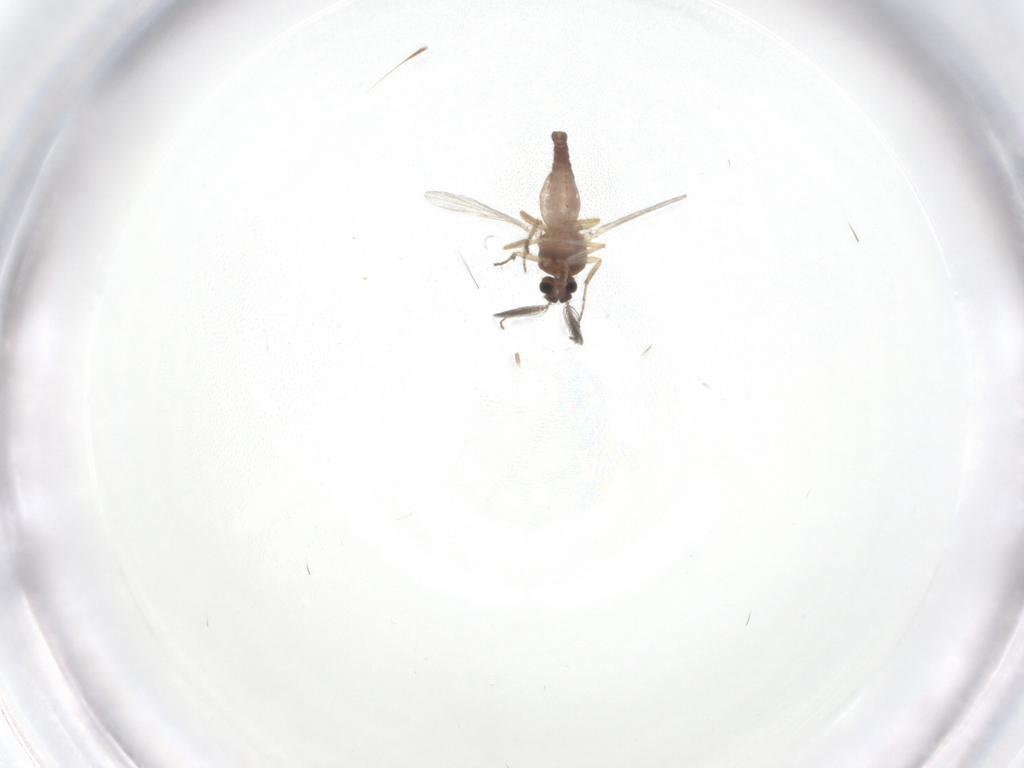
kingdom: Animalia
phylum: Arthropoda
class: Insecta
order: Diptera
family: Ceratopogonidae
